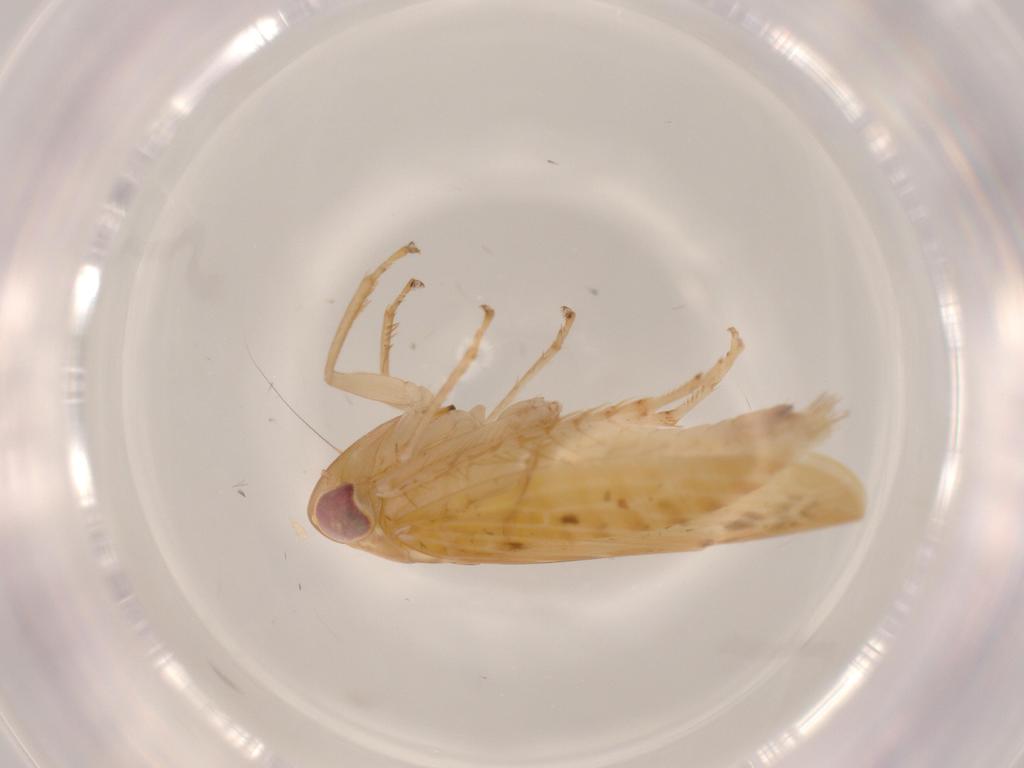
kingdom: Animalia
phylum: Arthropoda
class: Insecta
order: Hemiptera
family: Cicadellidae
